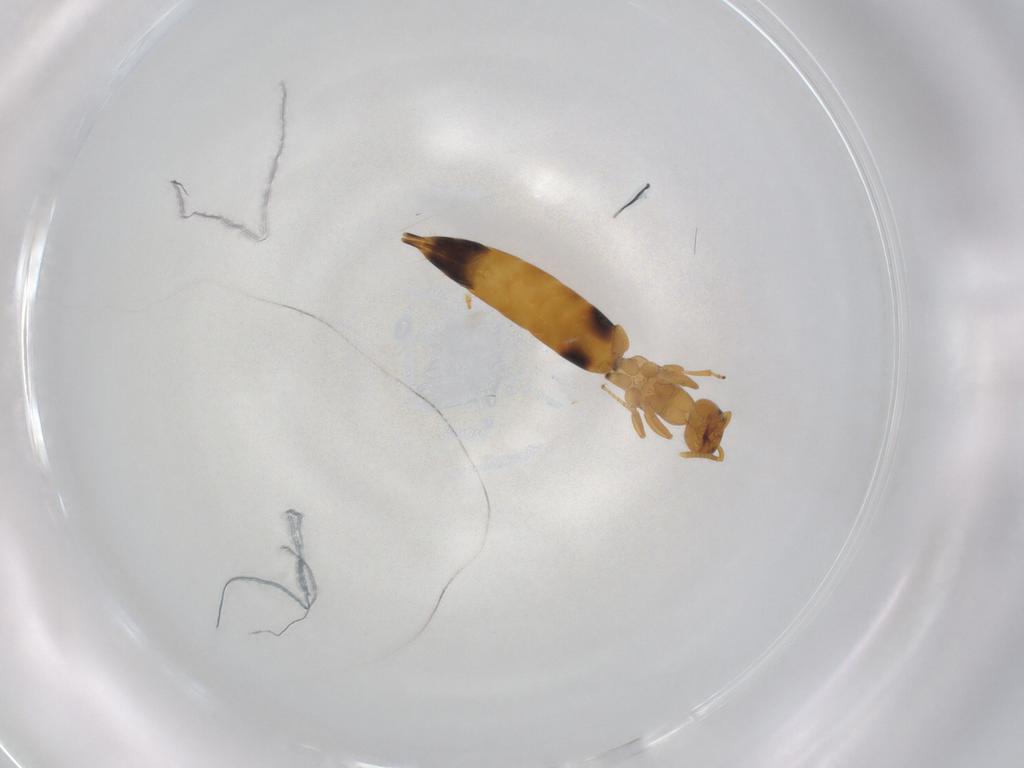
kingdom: Animalia
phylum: Arthropoda
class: Insecta
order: Hymenoptera
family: Bethylidae
